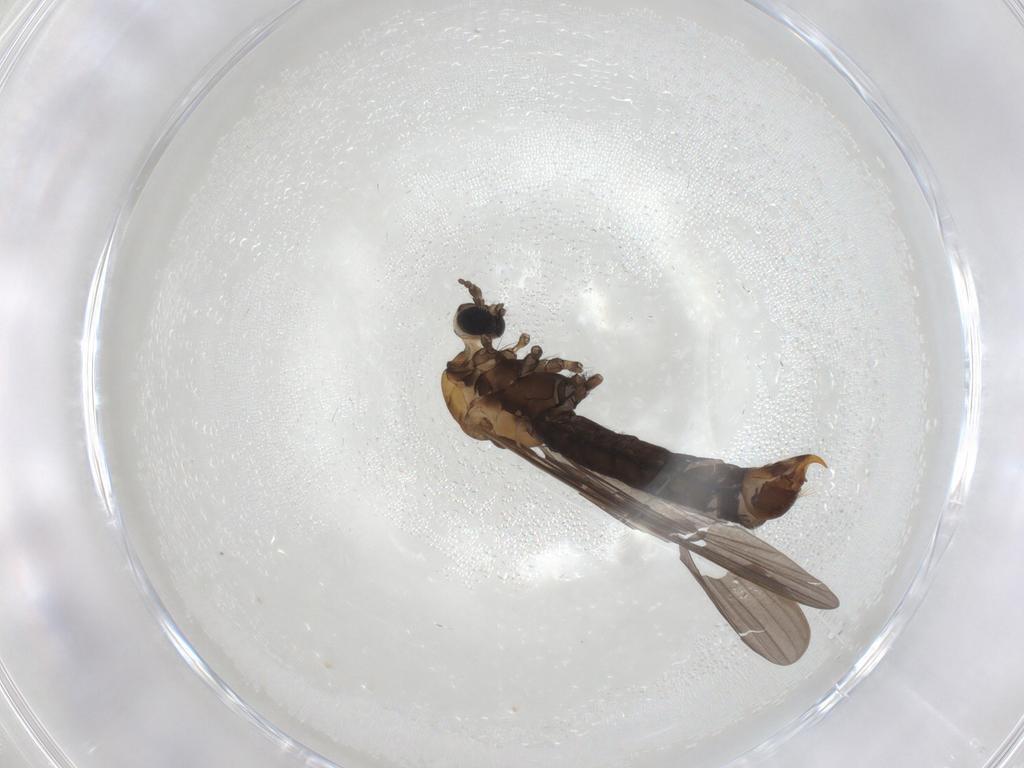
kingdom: Animalia
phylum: Arthropoda
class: Insecta
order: Diptera
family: Limoniidae
